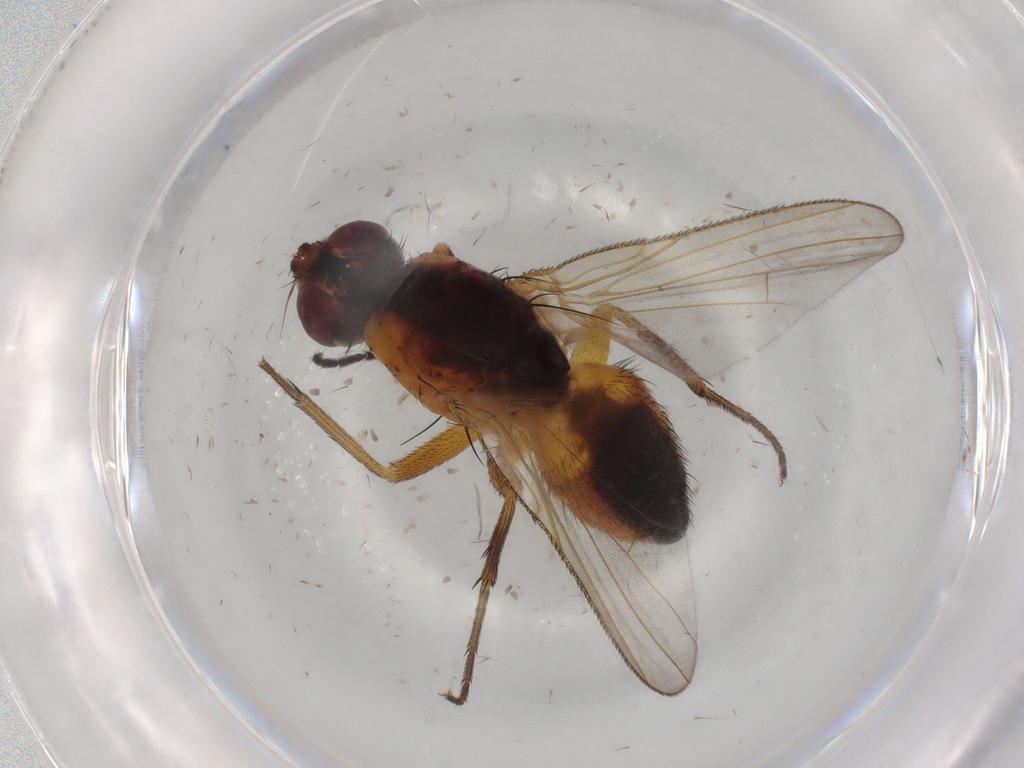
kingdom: Animalia
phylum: Arthropoda
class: Insecta
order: Diptera
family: Muscidae
